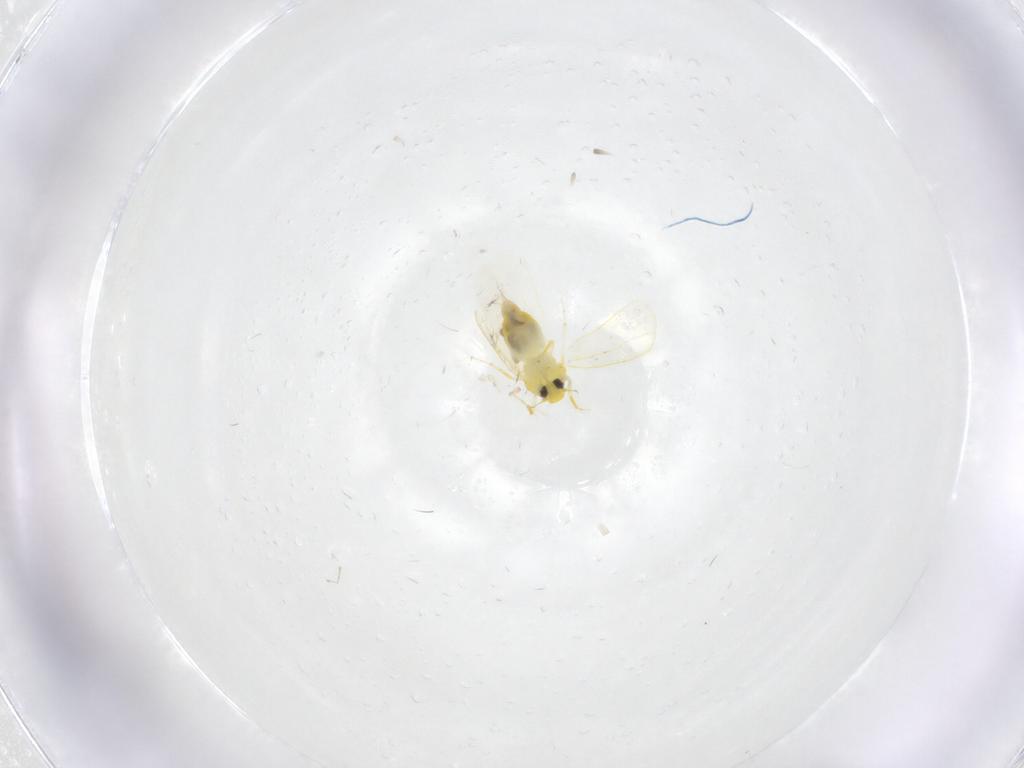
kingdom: Animalia
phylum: Arthropoda
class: Insecta
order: Hemiptera
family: Aleyrodidae
